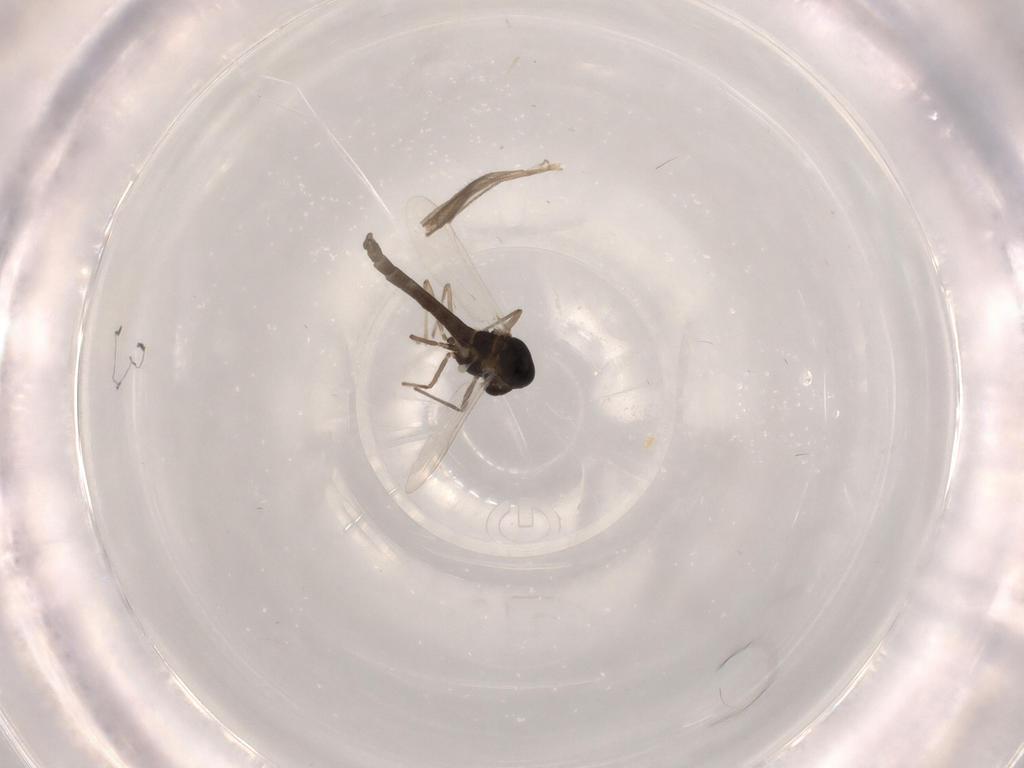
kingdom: Animalia
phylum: Arthropoda
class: Insecta
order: Diptera
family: Chironomidae
